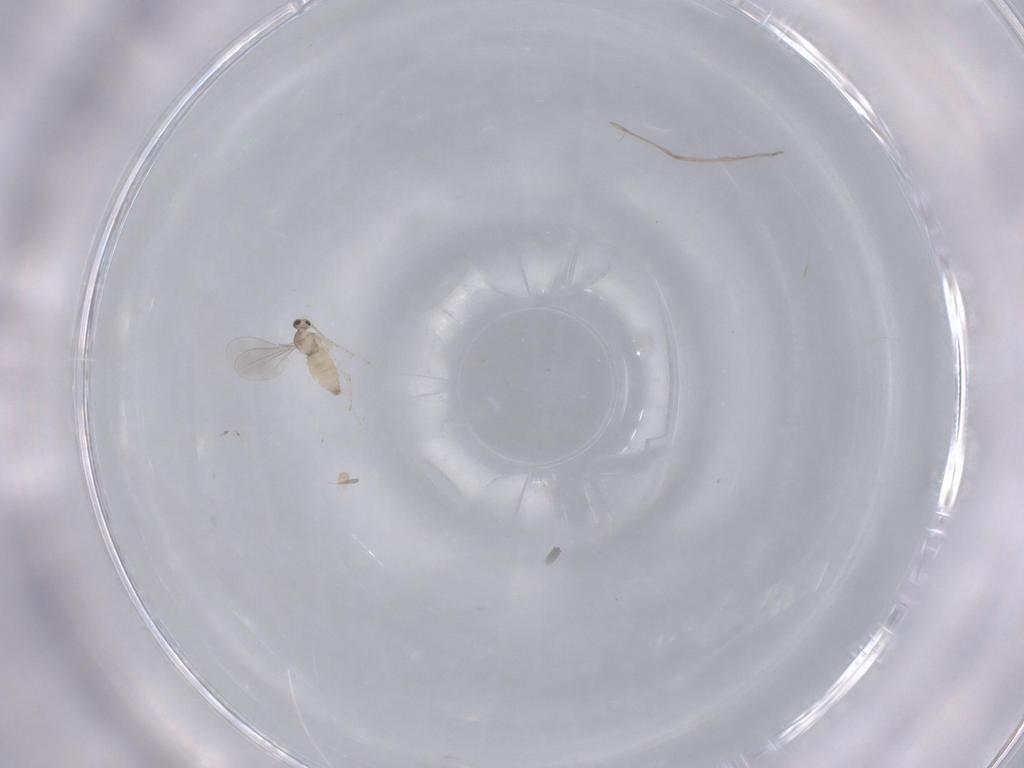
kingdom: Animalia
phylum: Arthropoda
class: Insecta
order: Diptera
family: Cecidomyiidae
